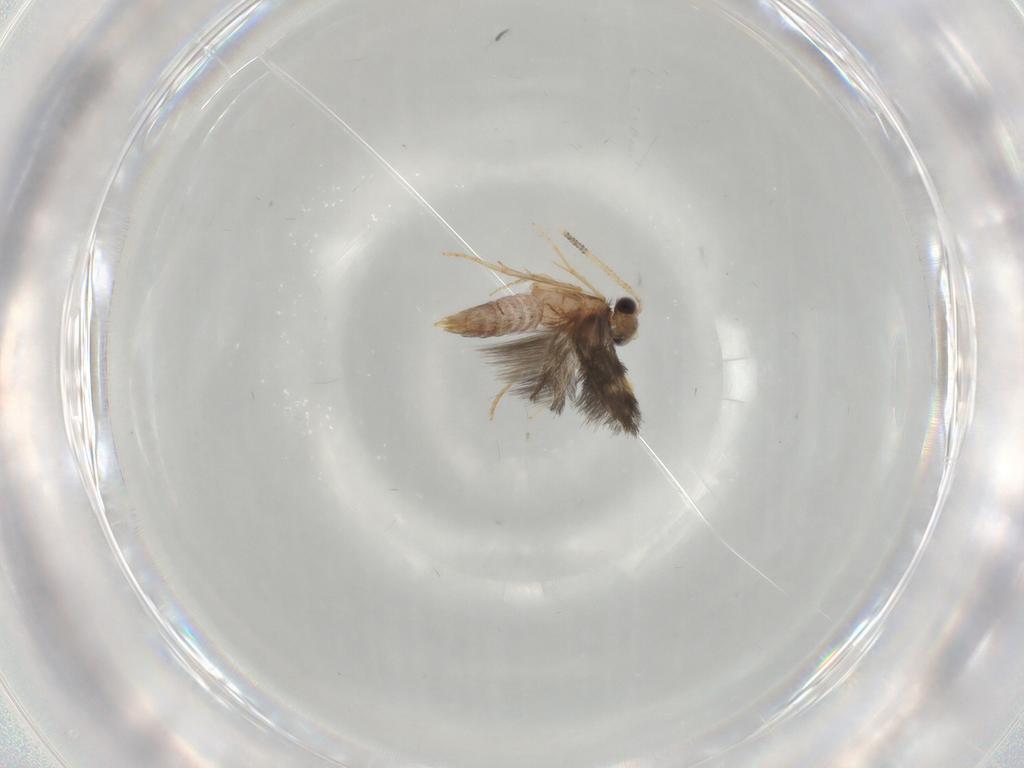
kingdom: Animalia
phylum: Arthropoda
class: Insecta
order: Trichoptera
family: Hydroptilidae
